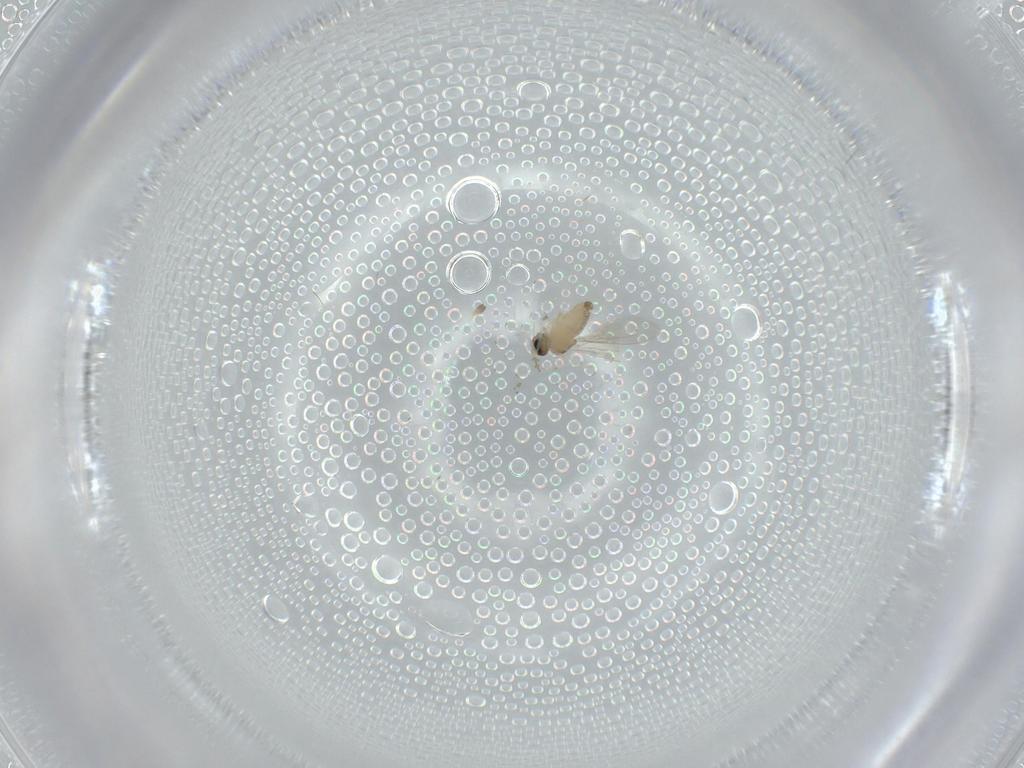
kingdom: Animalia
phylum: Arthropoda
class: Insecta
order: Diptera
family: Cecidomyiidae
